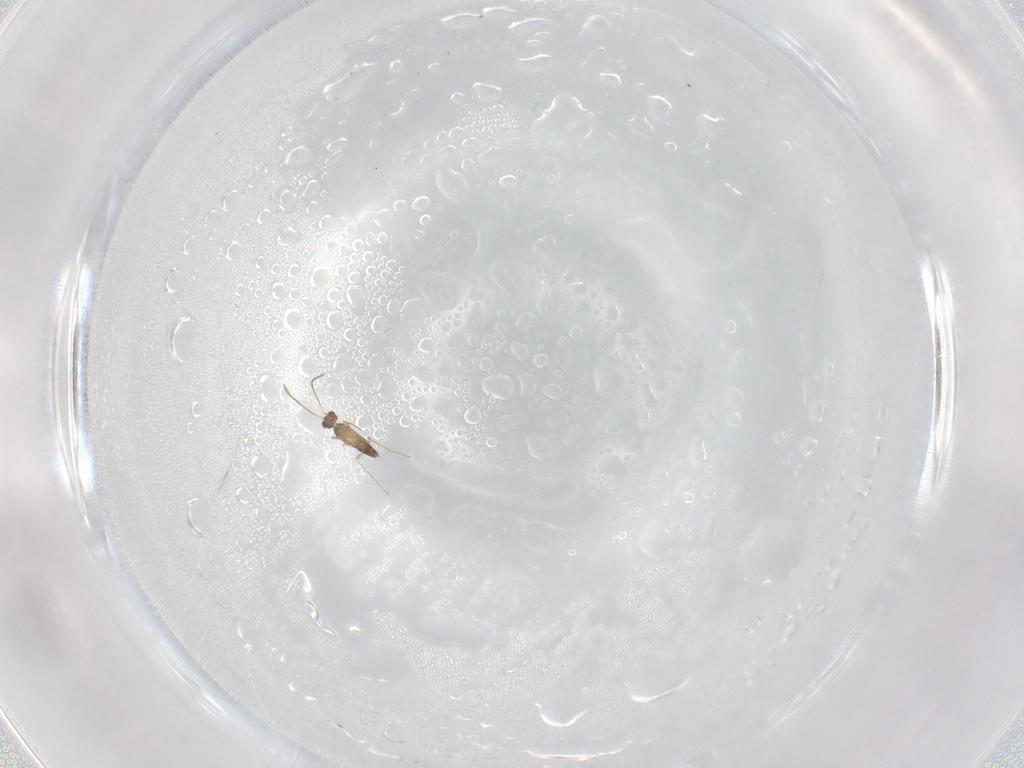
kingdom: Animalia
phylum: Arthropoda
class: Insecta
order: Hymenoptera
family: Mymaridae
